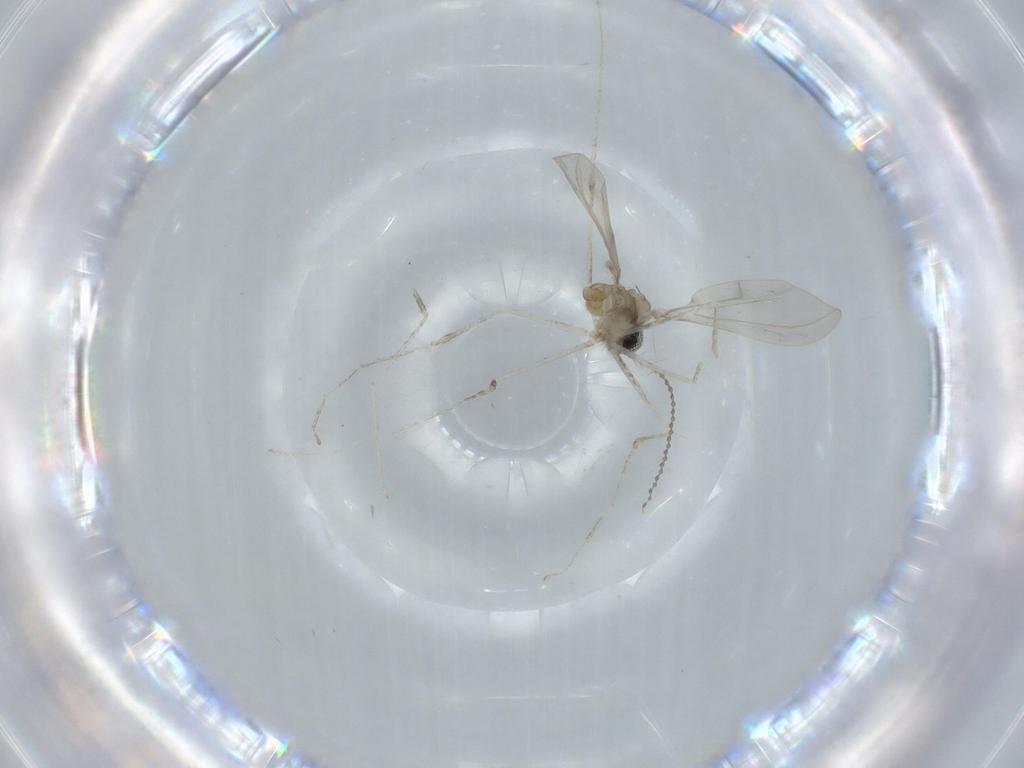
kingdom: Animalia
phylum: Arthropoda
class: Insecta
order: Diptera
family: Cecidomyiidae
